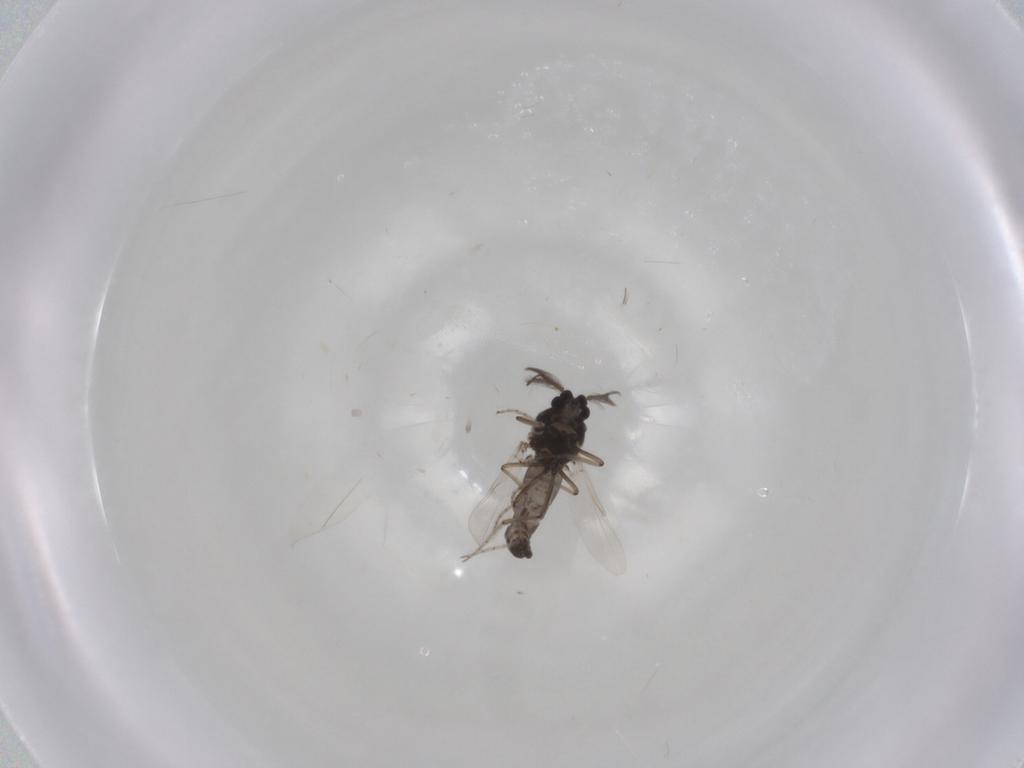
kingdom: Animalia
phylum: Arthropoda
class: Insecta
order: Diptera
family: Ceratopogonidae
